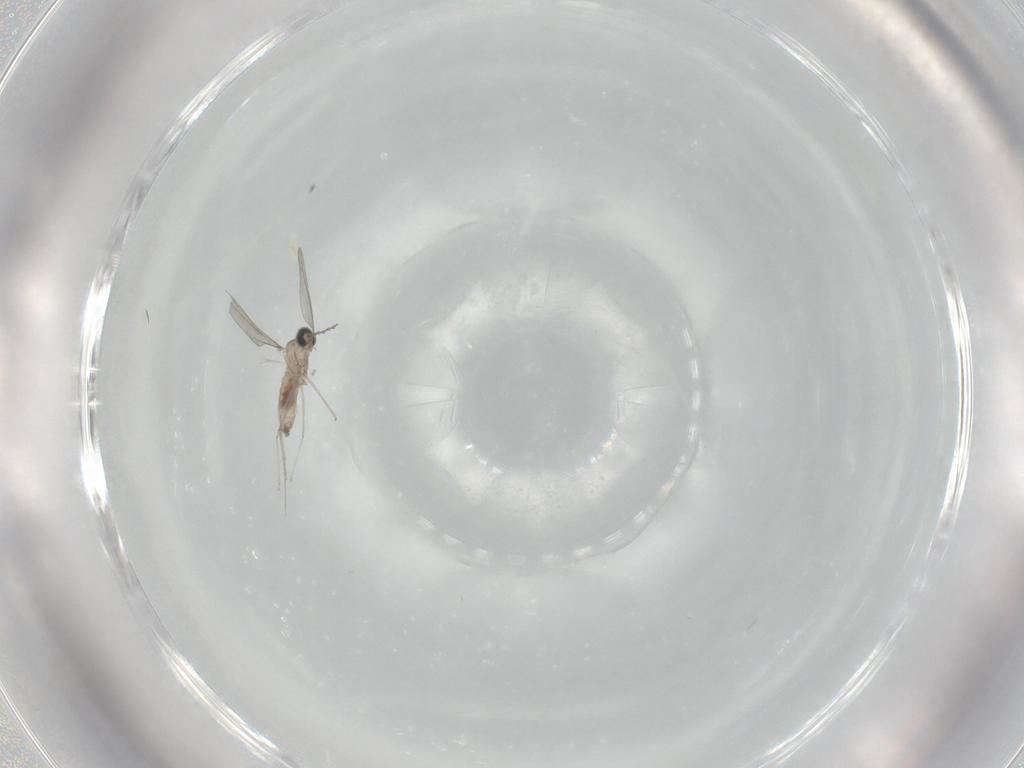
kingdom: Animalia
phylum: Arthropoda
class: Insecta
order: Diptera
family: Cecidomyiidae
